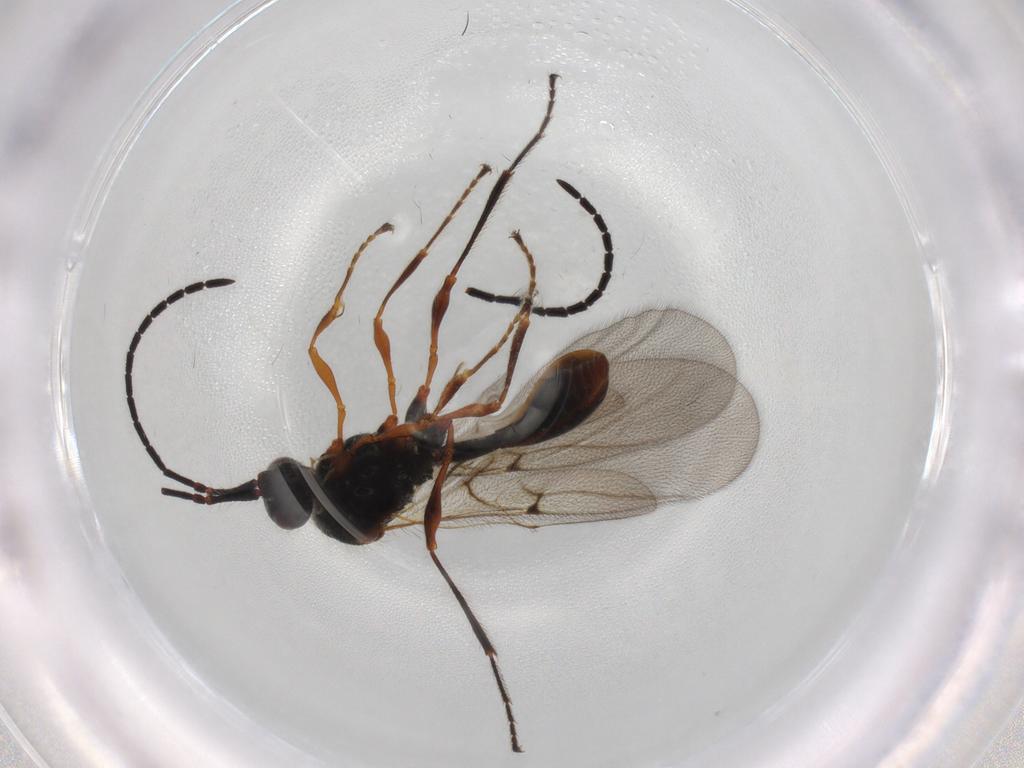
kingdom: Animalia
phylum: Arthropoda
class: Insecta
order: Hymenoptera
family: Diapriidae
